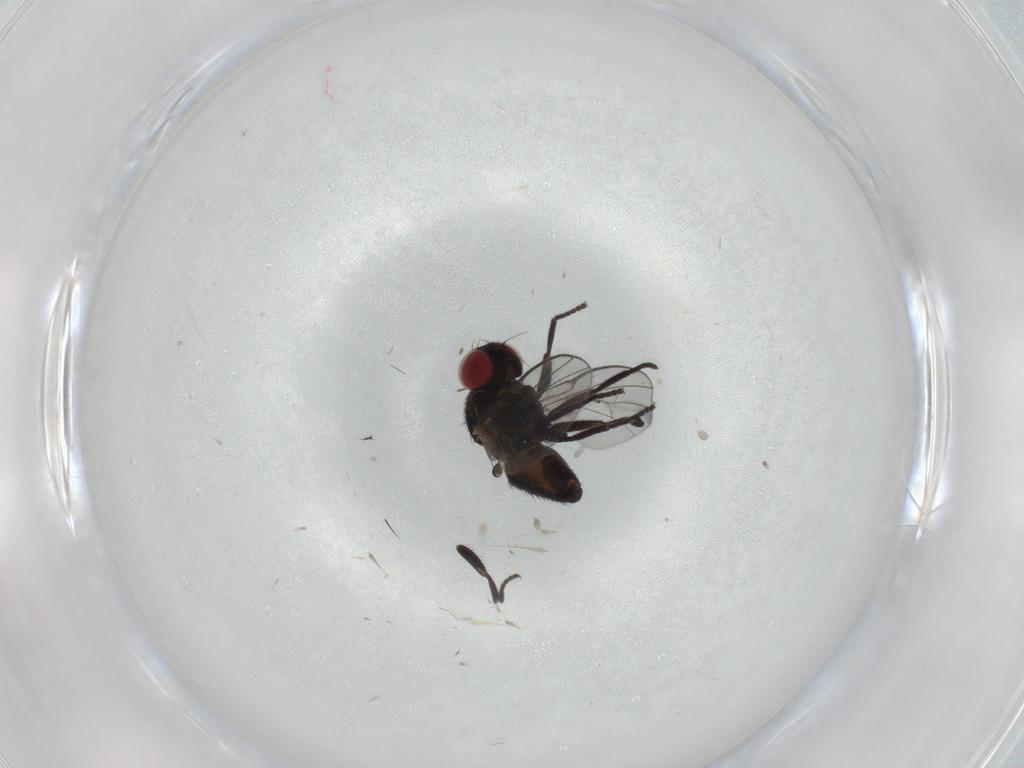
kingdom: Animalia
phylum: Arthropoda
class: Insecta
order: Diptera
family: Agromyzidae
